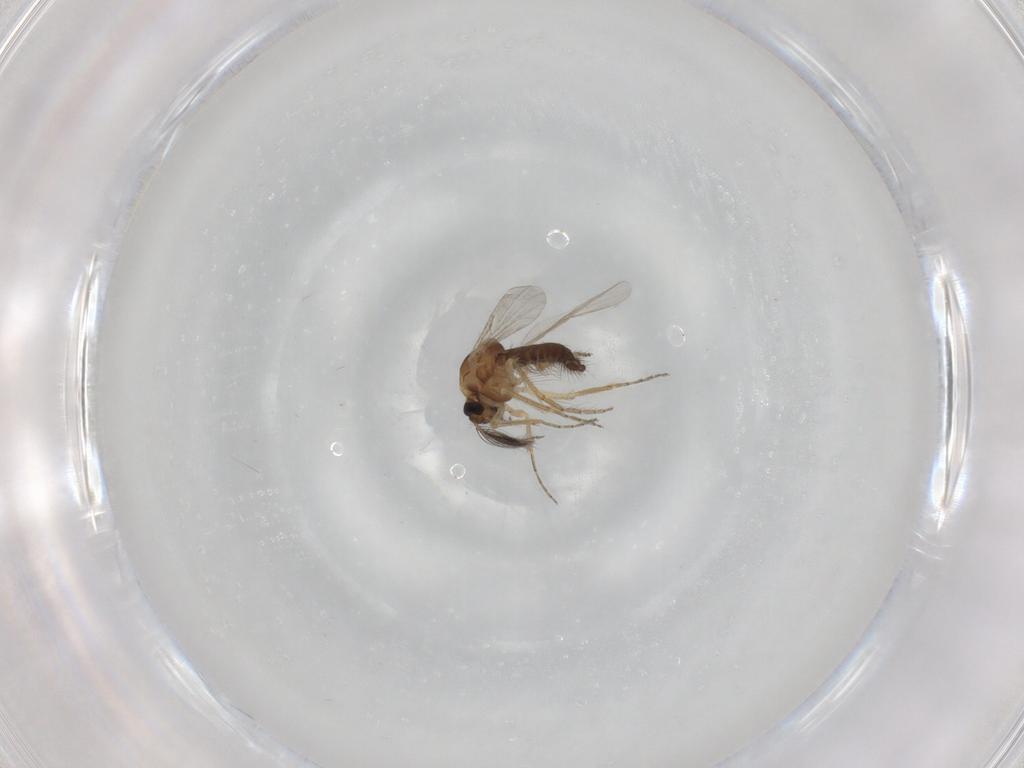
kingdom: Animalia
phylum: Arthropoda
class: Insecta
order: Diptera
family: Ceratopogonidae
